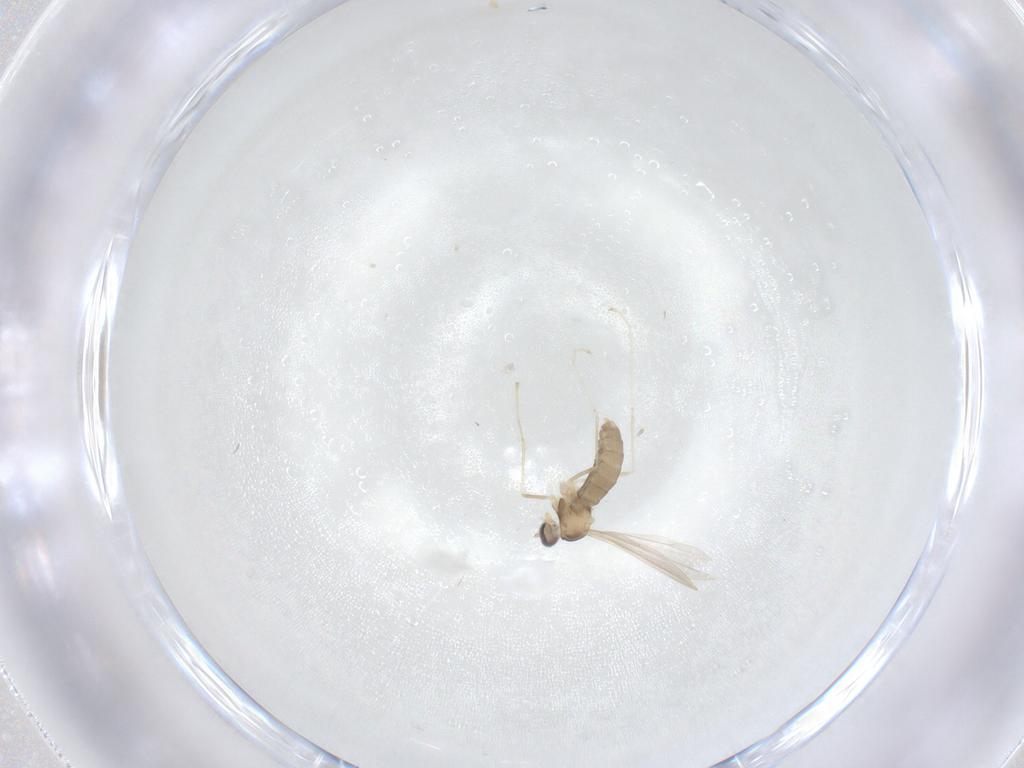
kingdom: Animalia
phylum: Arthropoda
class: Insecta
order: Diptera
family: Cecidomyiidae
